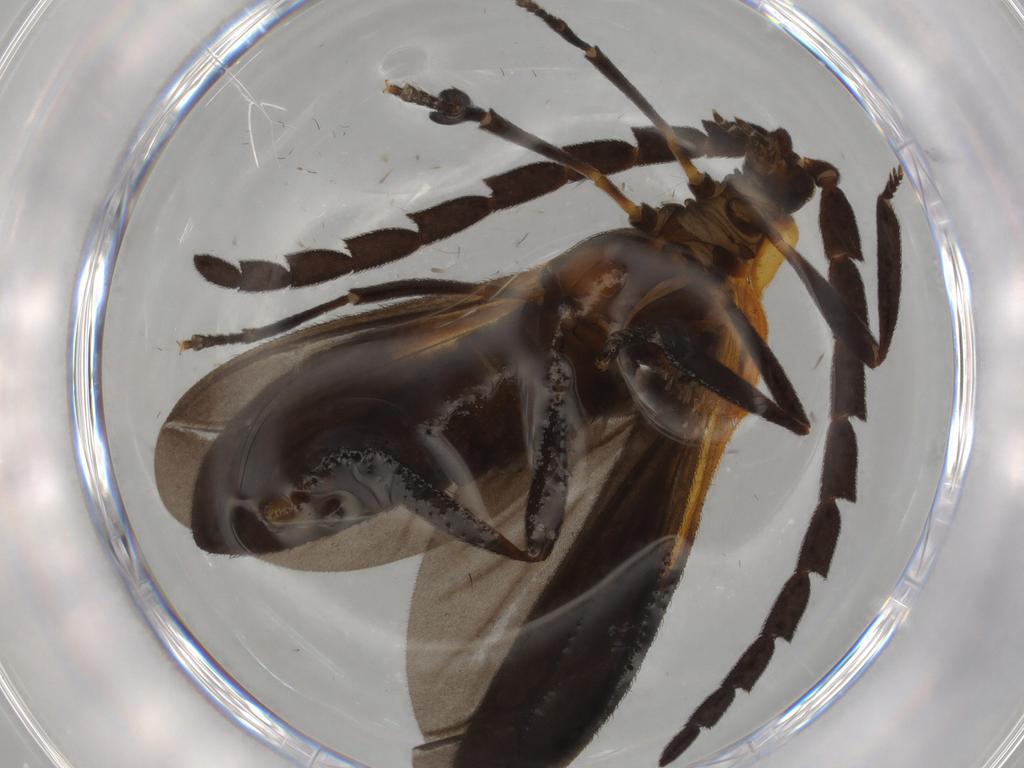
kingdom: Animalia
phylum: Arthropoda
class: Insecta
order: Coleoptera
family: Lycidae
